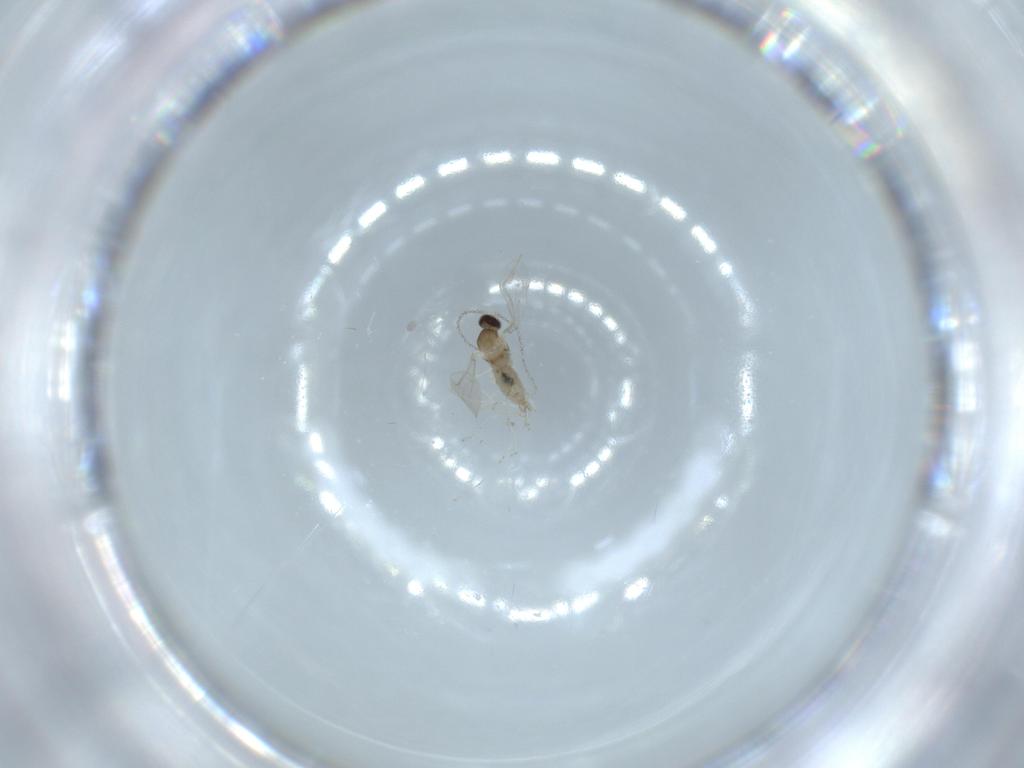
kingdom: Animalia
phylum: Arthropoda
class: Insecta
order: Diptera
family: Cecidomyiidae
